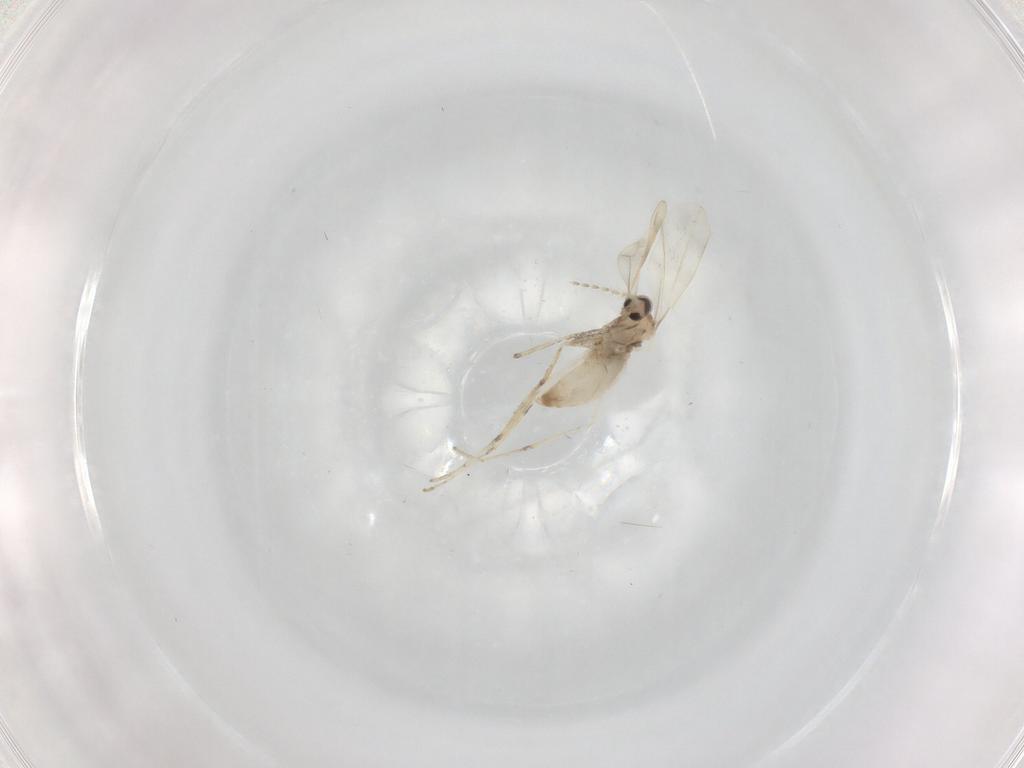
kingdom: Animalia
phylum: Arthropoda
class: Insecta
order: Diptera
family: Cecidomyiidae
